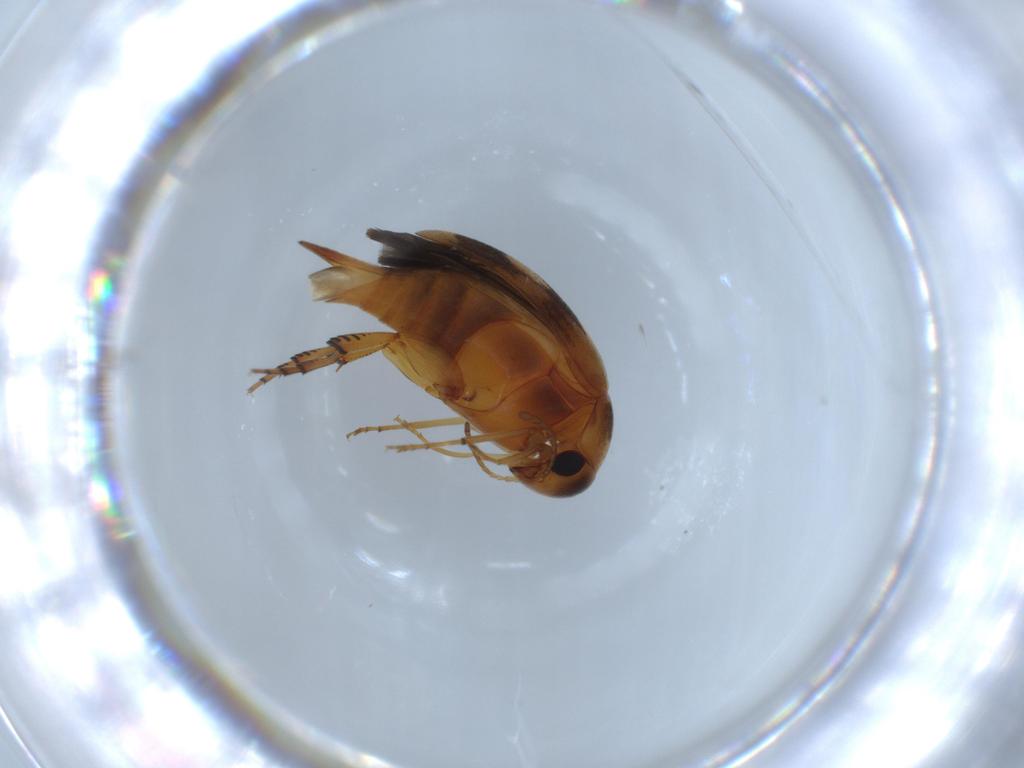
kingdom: Animalia
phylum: Arthropoda
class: Insecta
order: Coleoptera
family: Mordellidae
